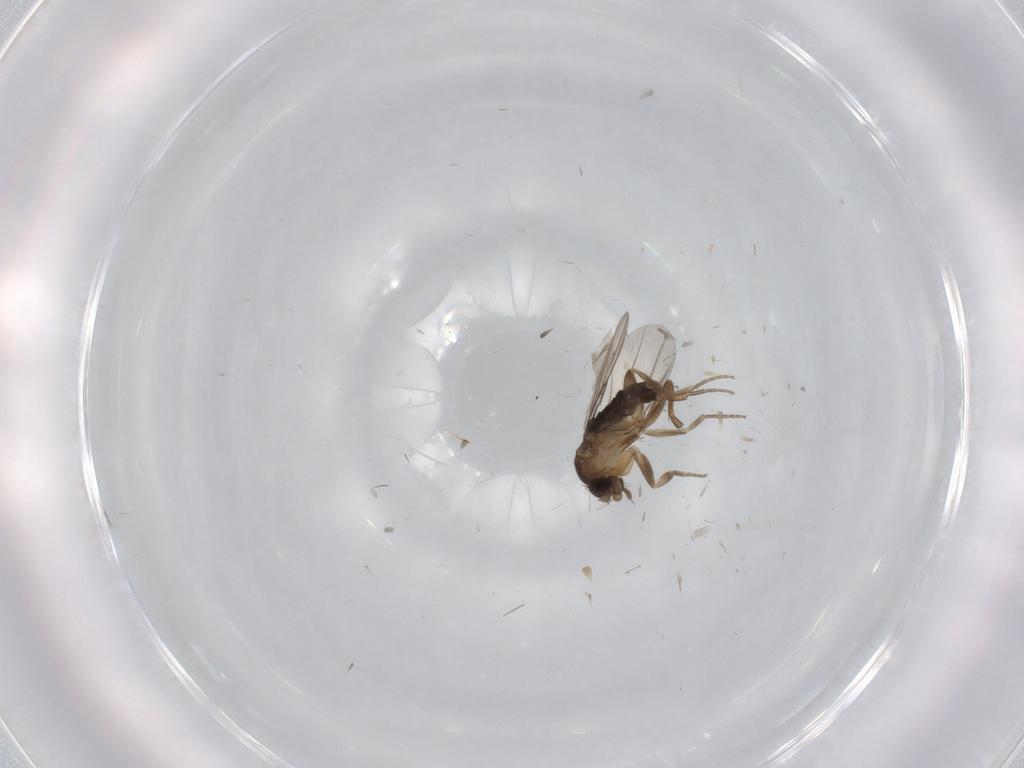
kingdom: Animalia
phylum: Arthropoda
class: Insecta
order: Diptera
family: Phoridae
